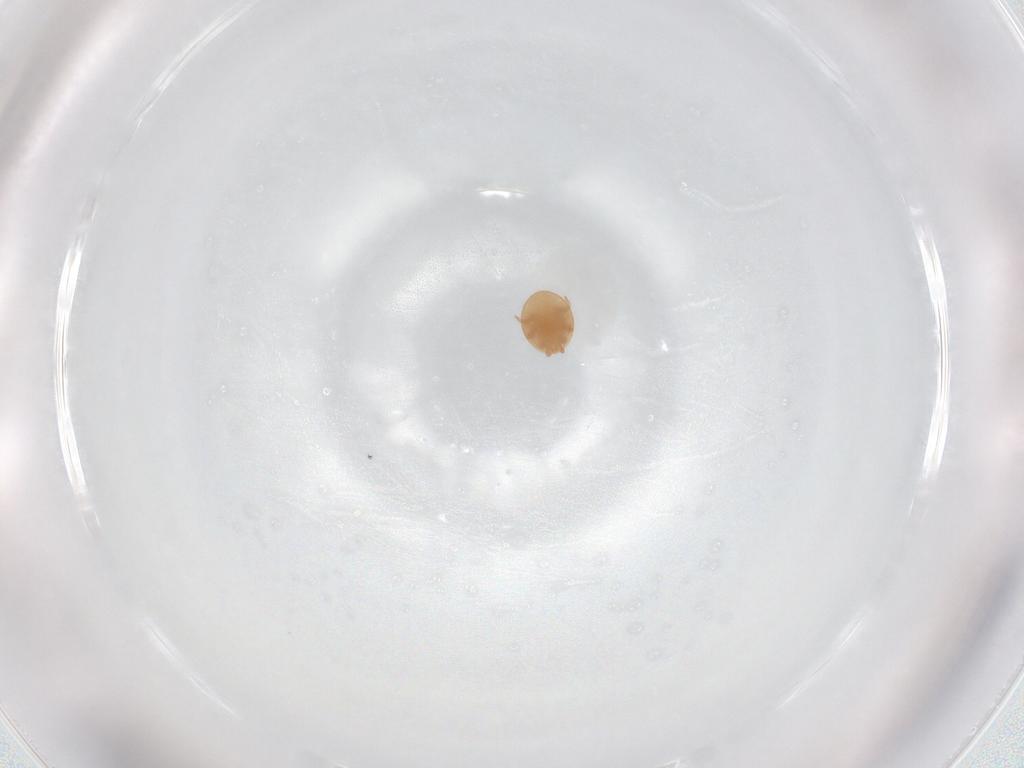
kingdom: Animalia
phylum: Arthropoda
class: Arachnida
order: Mesostigmata
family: Trematuridae
